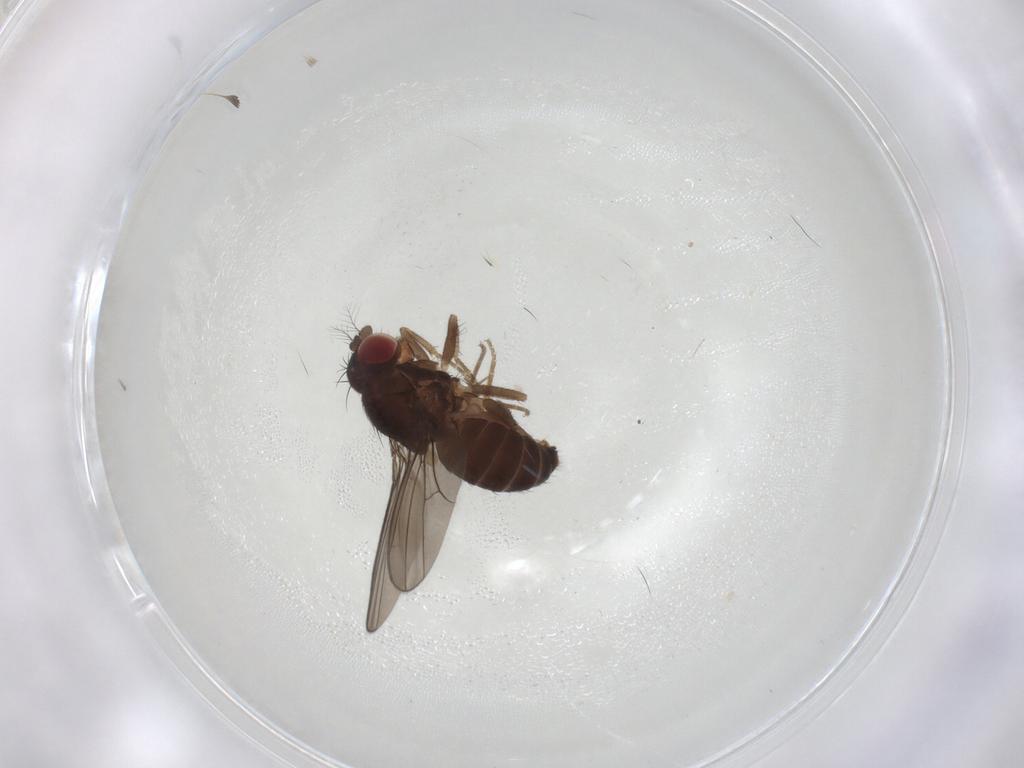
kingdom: Animalia
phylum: Arthropoda
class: Insecta
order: Diptera
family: Drosophilidae
